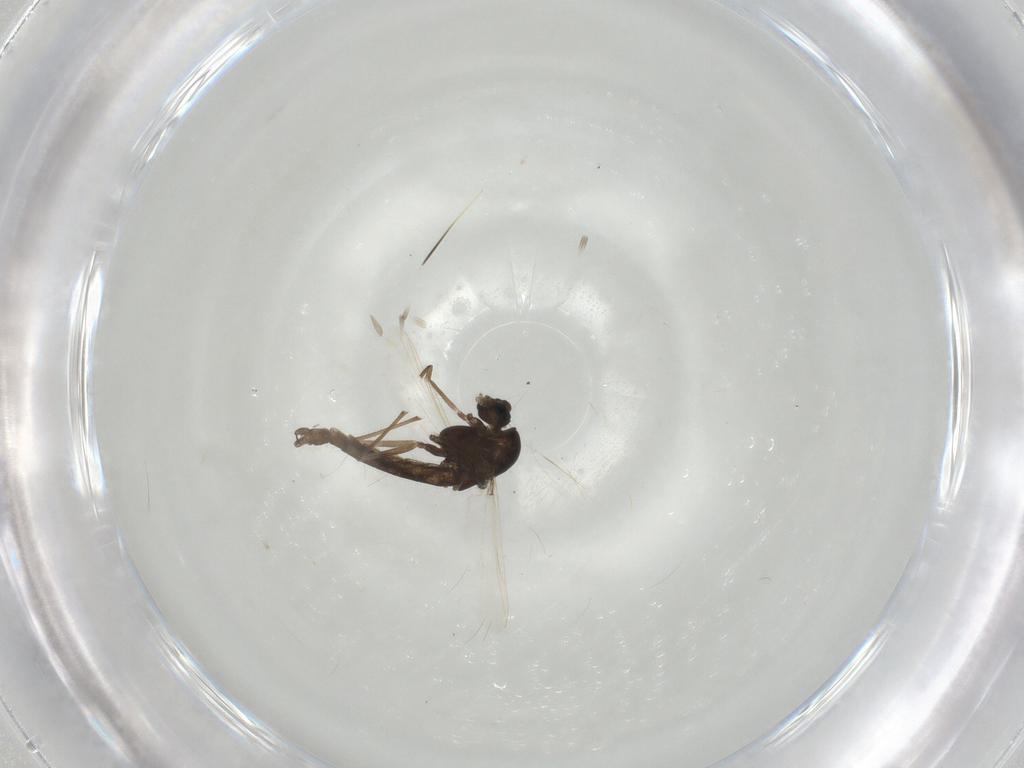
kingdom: Animalia
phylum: Arthropoda
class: Insecta
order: Diptera
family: Chironomidae
